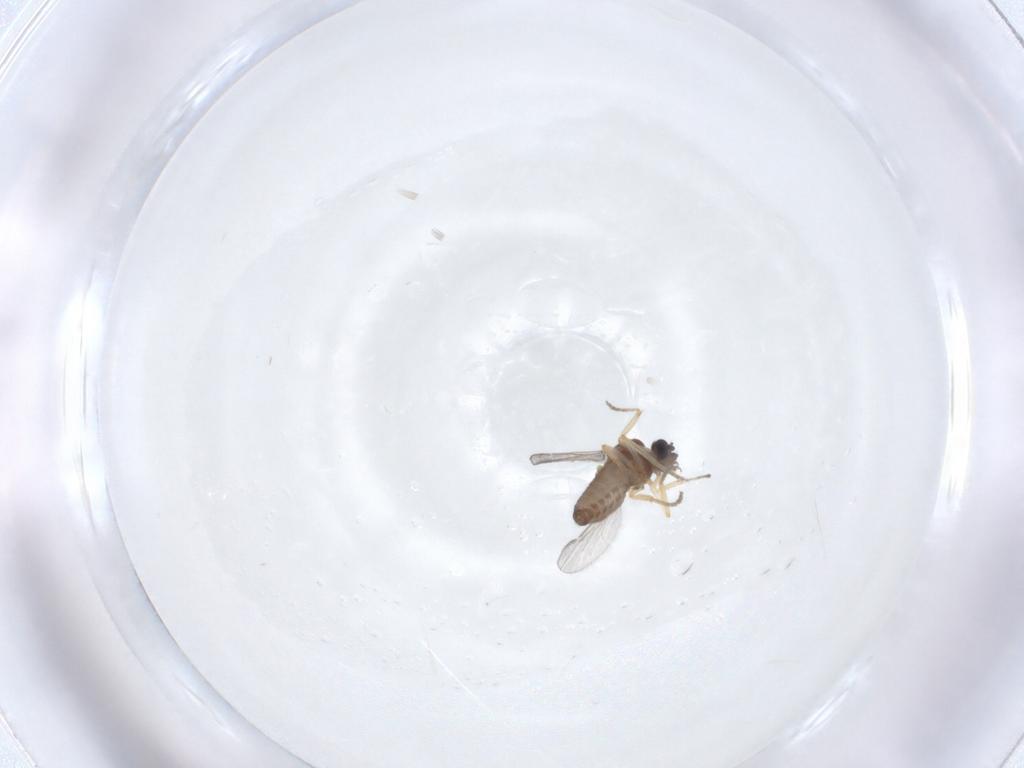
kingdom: Animalia
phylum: Arthropoda
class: Insecta
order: Diptera
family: Ceratopogonidae
